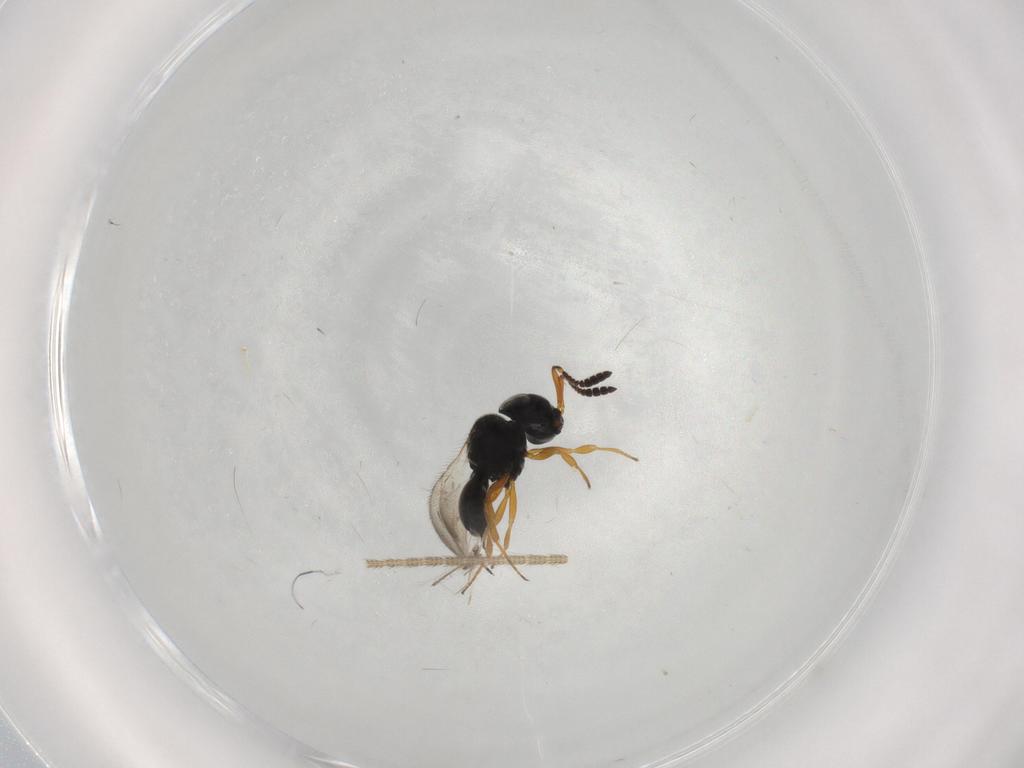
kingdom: Animalia
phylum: Arthropoda
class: Insecta
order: Hymenoptera
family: Scelionidae
